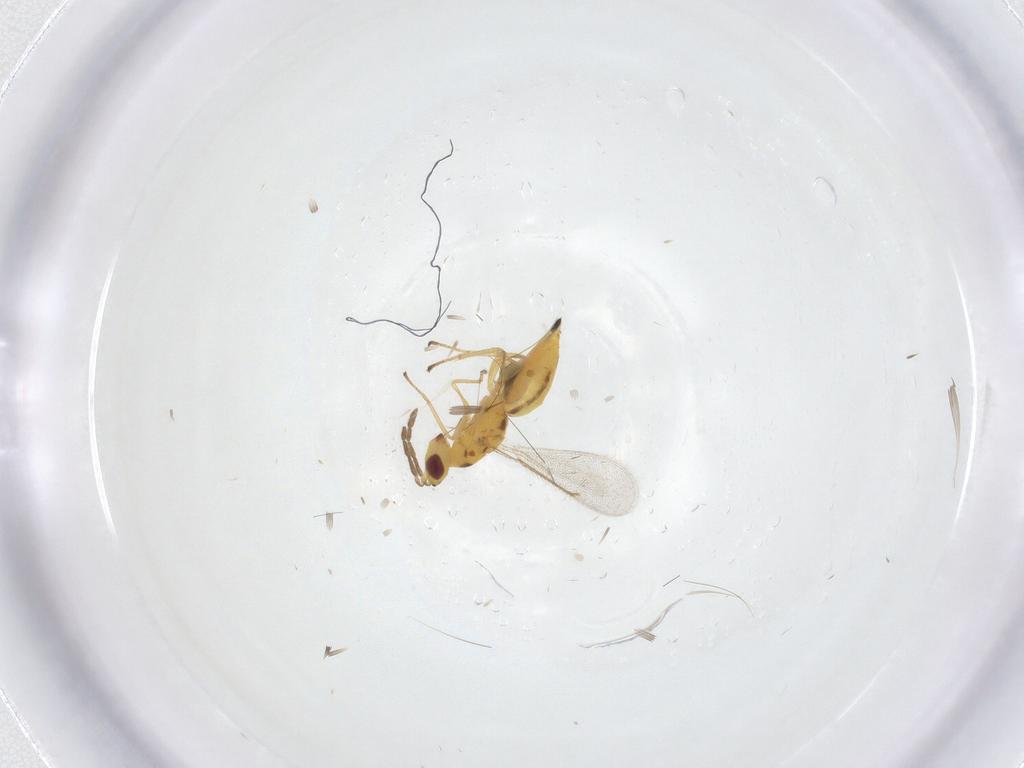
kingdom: Animalia
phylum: Arthropoda
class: Insecta
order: Hymenoptera
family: Eulophidae
